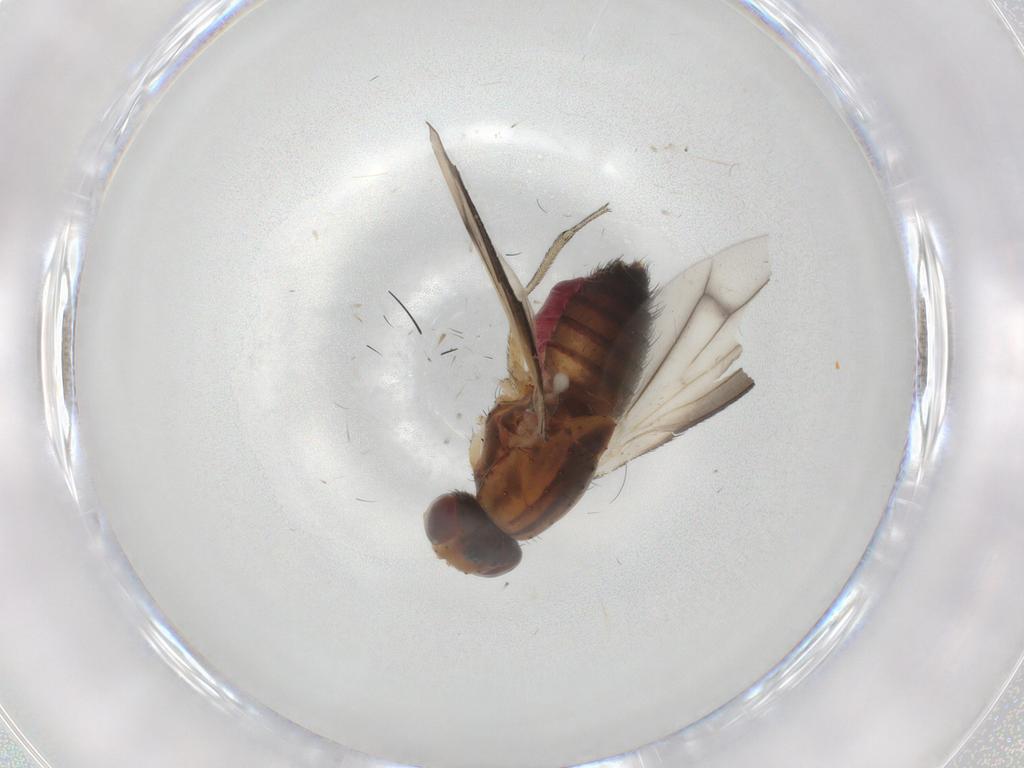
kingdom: Animalia
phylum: Arthropoda
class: Insecta
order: Diptera
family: Heleomyzidae
